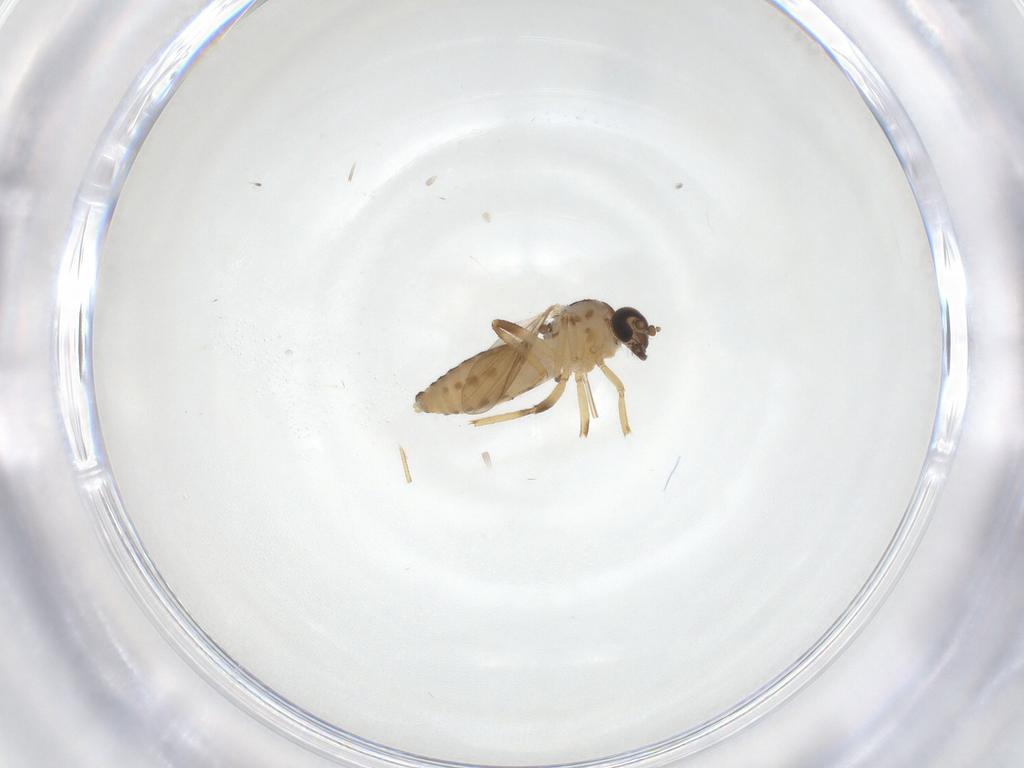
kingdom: Animalia
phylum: Arthropoda
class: Insecta
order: Diptera
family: Ceratopogonidae
